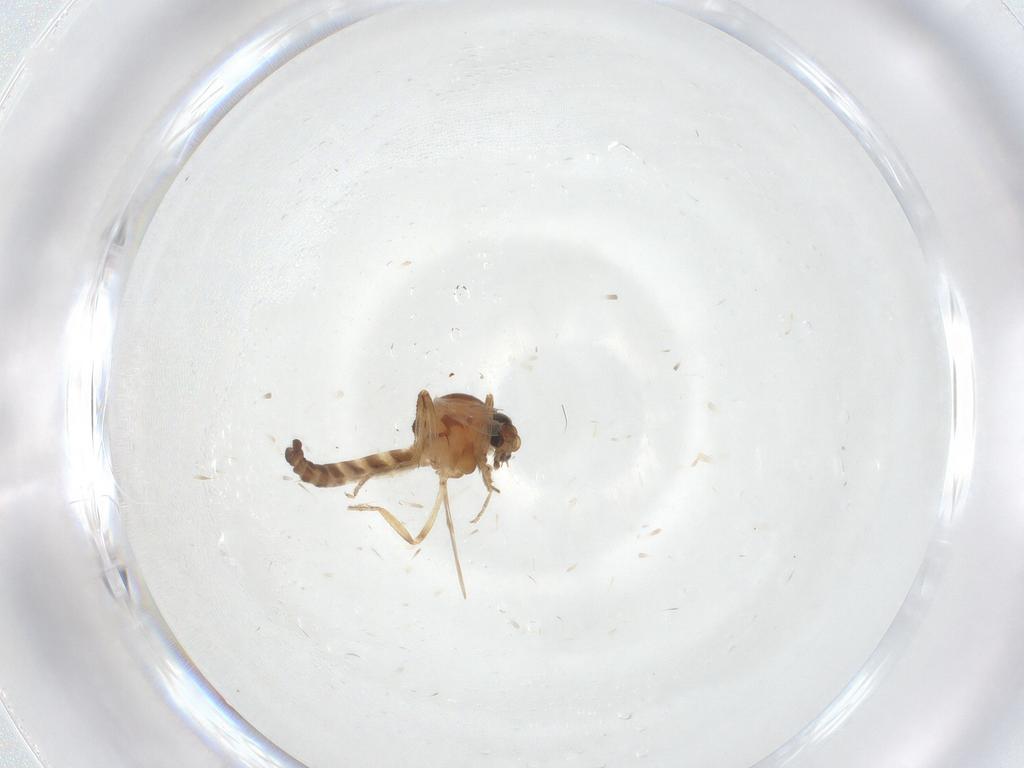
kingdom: Animalia
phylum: Arthropoda
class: Insecta
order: Diptera
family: Ceratopogonidae
